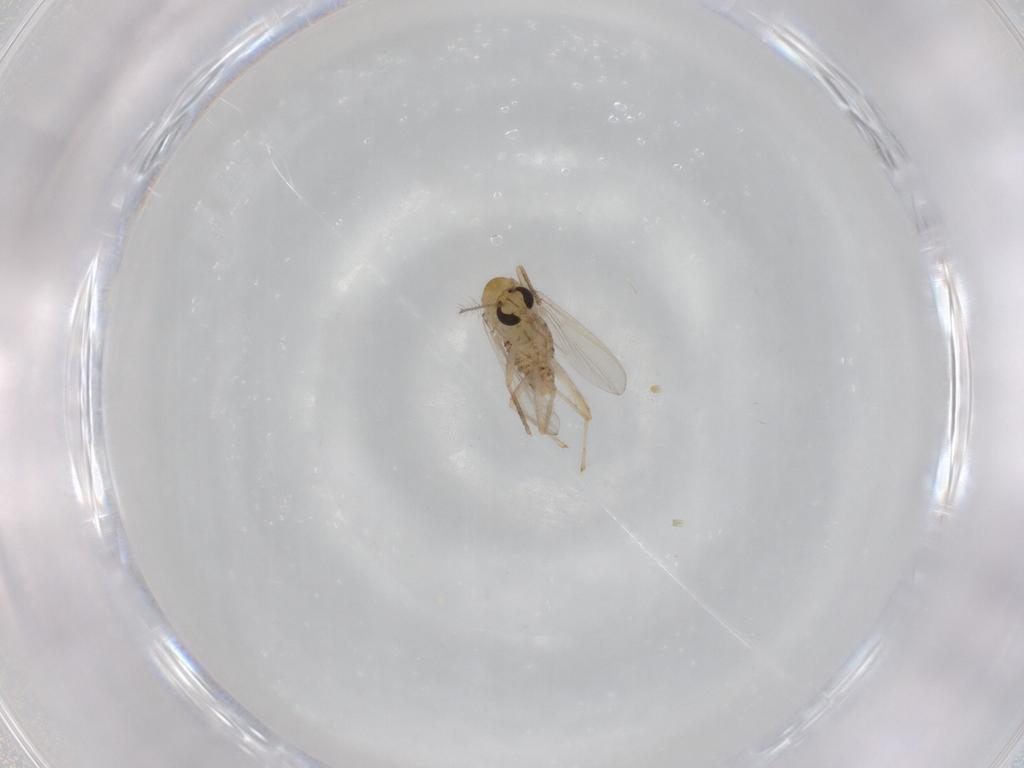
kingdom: Animalia
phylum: Arthropoda
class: Insecta
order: Diptera
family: Chironomidae
